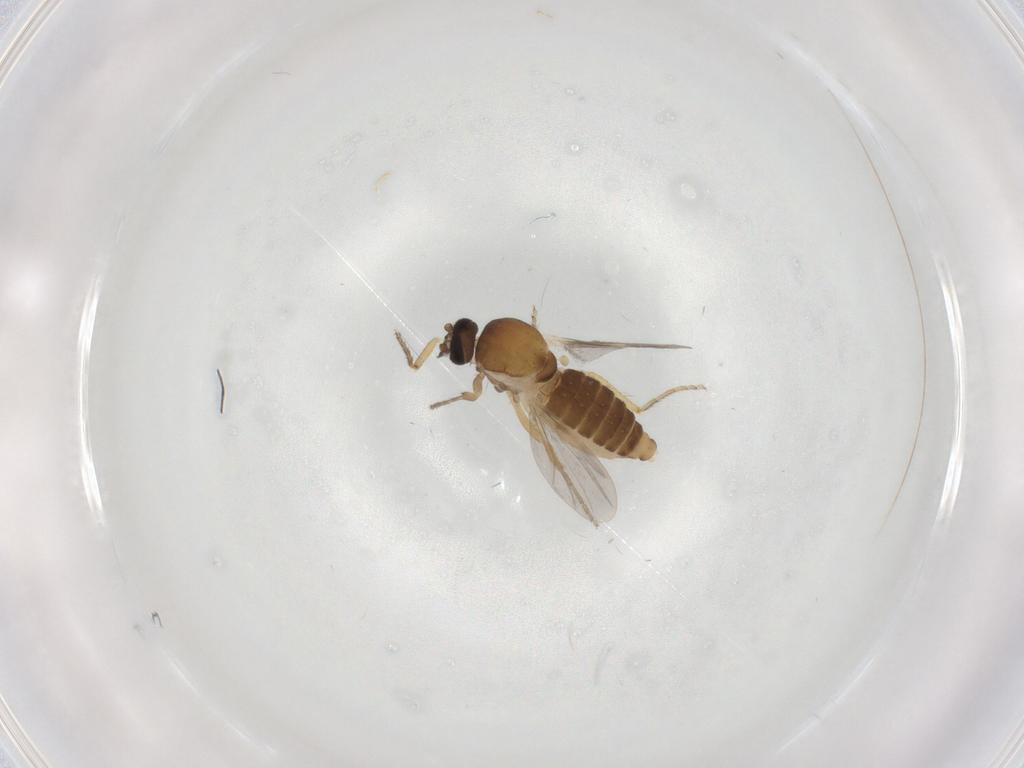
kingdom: Animalia
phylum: Arthropoda
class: Insecta
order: Diptera
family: Ceratopogonidae
